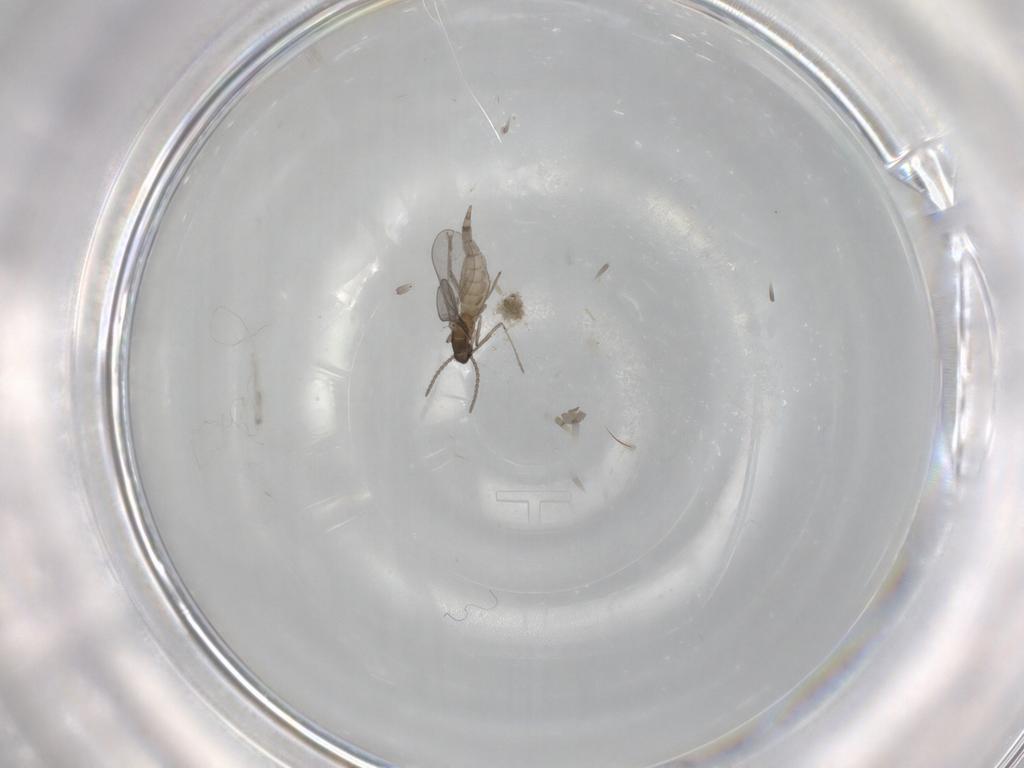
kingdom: Animalia
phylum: Arthropoda
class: Insecta
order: Diptera
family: Cecidomyiidae
